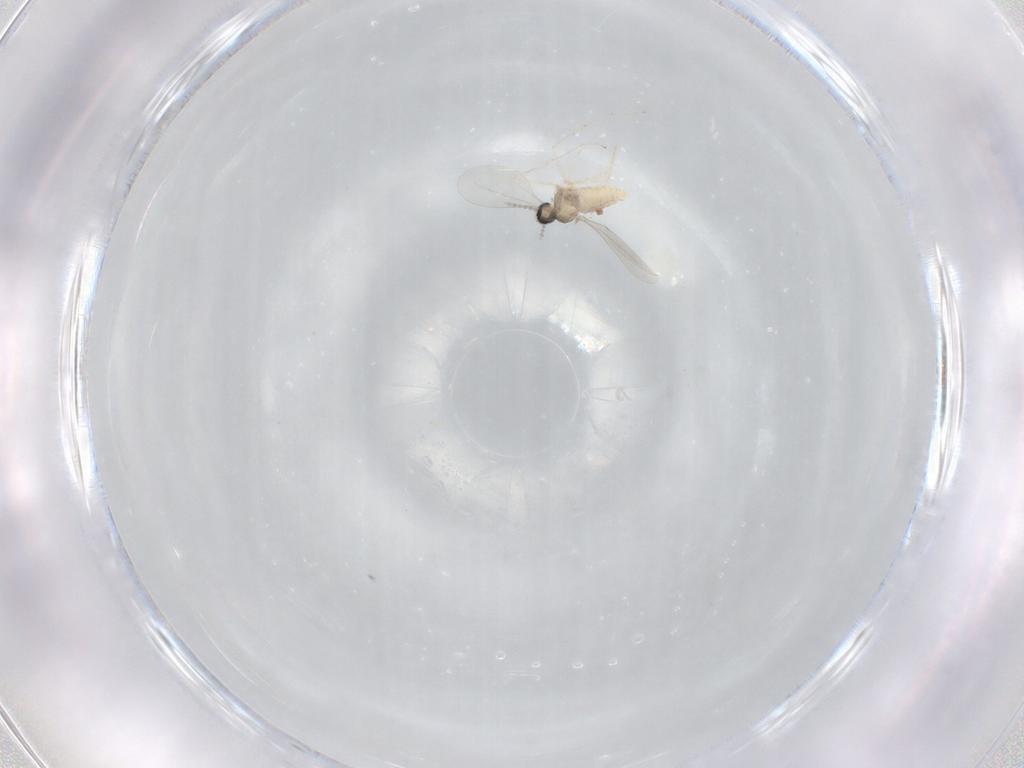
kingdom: Animalia
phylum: Arthropoda
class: Insecta
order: Diptera
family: Cecidomyiidae
